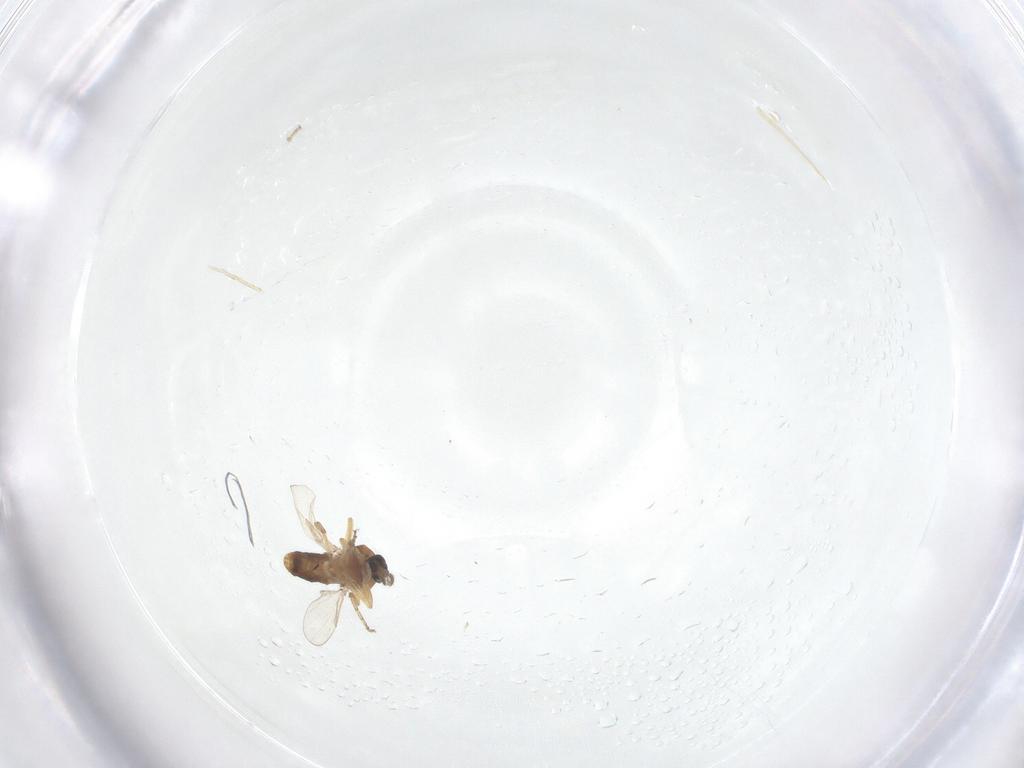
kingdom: Animalia
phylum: Arthropoda
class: Insecta
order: Diptera
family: Ceratopogonidae
